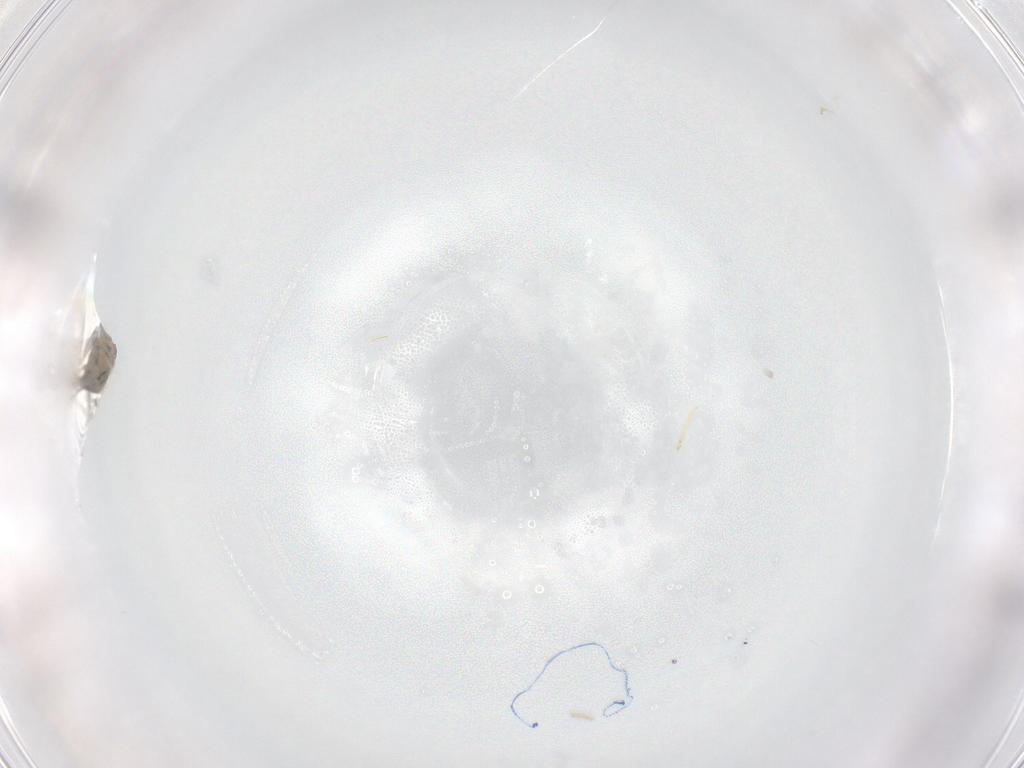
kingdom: Animalia
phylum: Arthropoda
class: Insecta
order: Diptera
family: Cecidomyiidae
